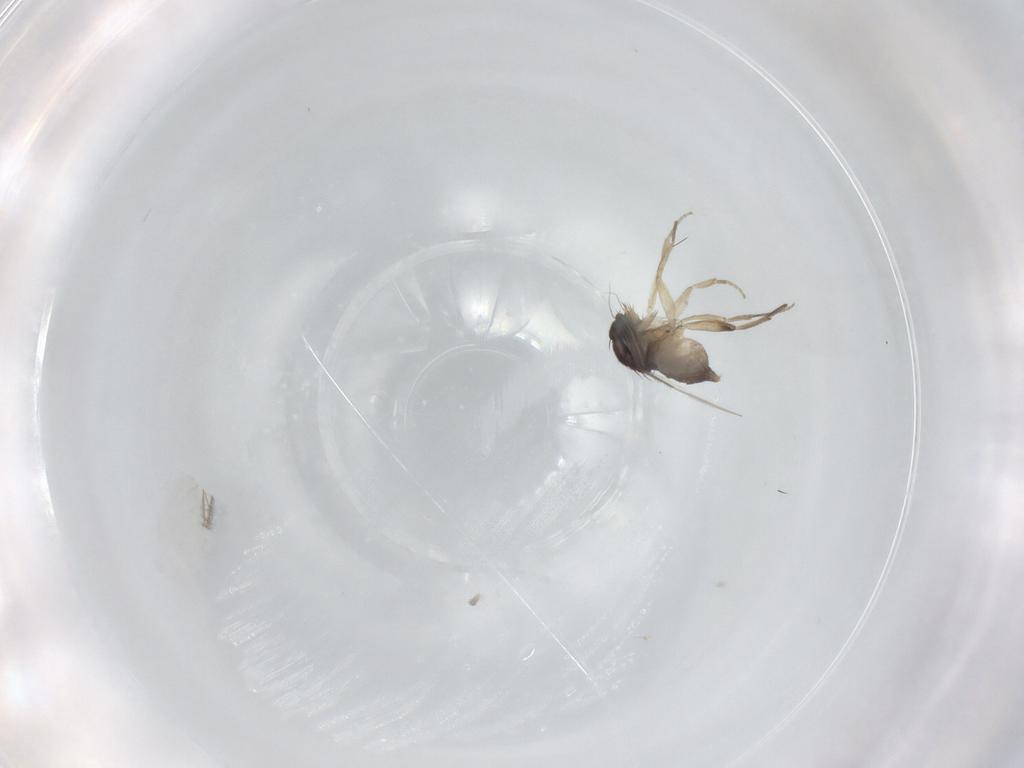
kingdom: Animalia
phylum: Arthropoda
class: Insecta
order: Diptera
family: Phoridae
